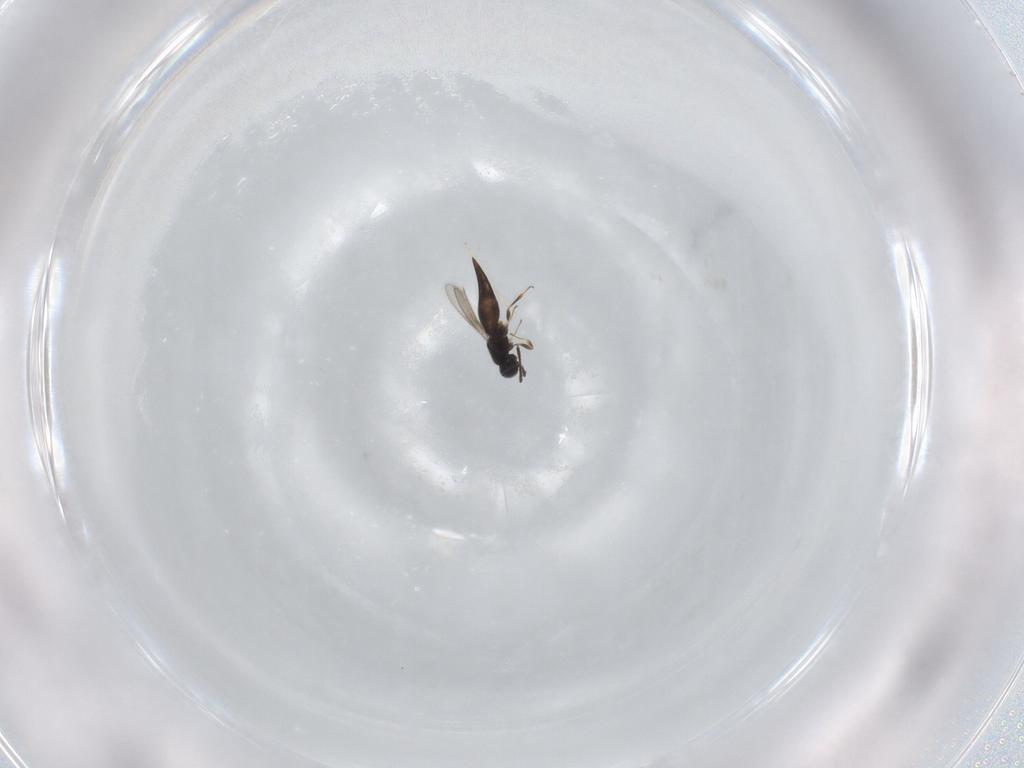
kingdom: Animalia
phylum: Arthropoda
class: Insecta
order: Hymenoptera
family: Scelionidae
